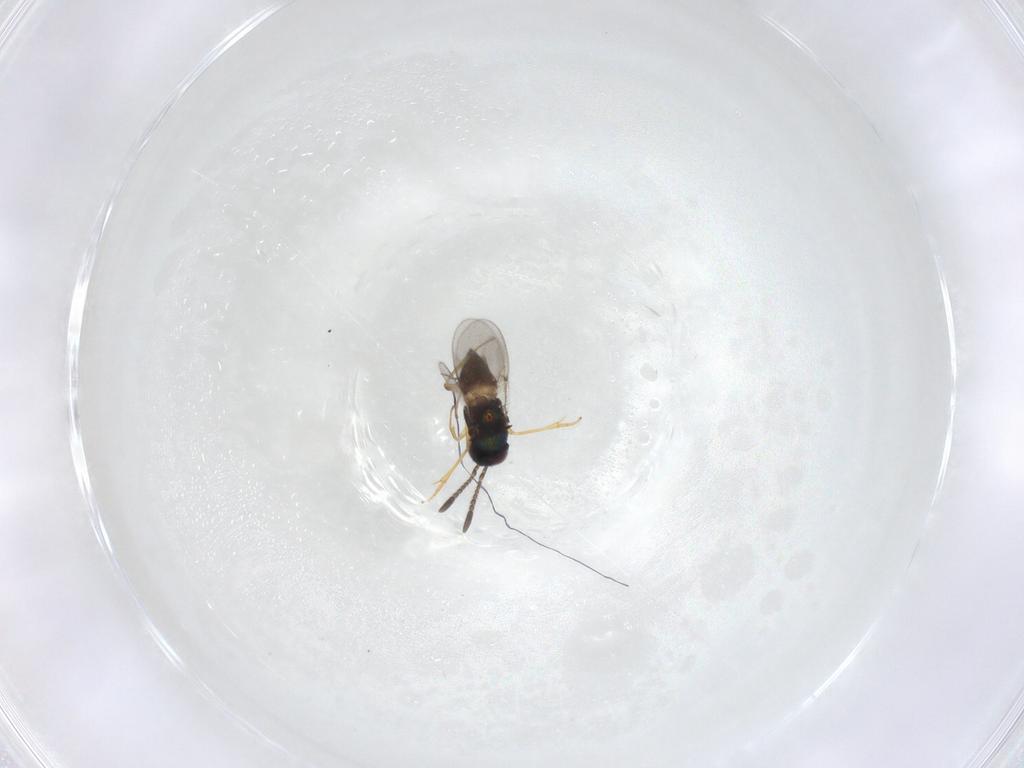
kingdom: Animalia
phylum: Arthropoda
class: Insecta
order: Hymenoptera
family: Encyrtidae
